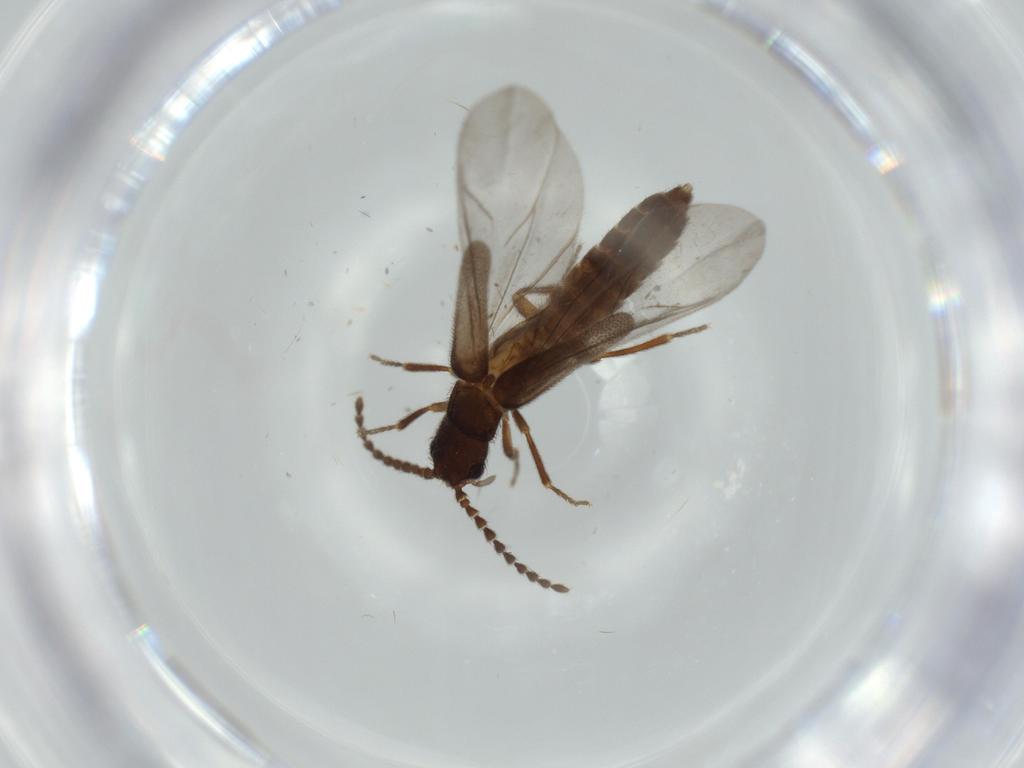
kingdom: Animalia
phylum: Arthropoda
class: Insecta
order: Coleoptera
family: Omethidae
